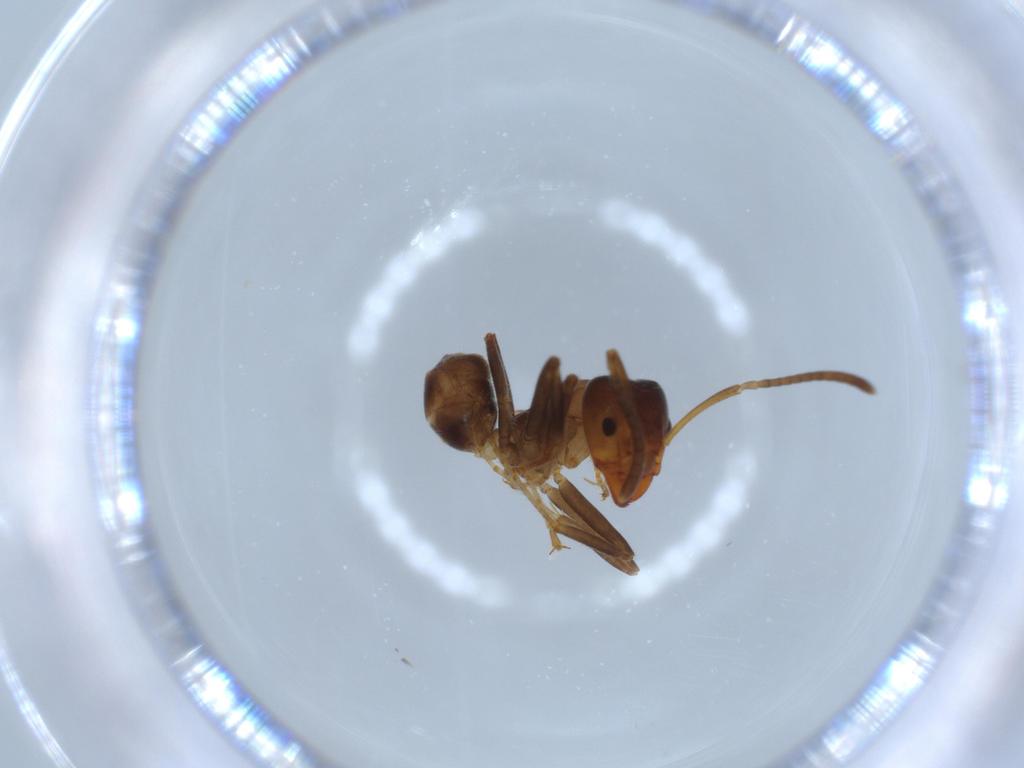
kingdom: Animalia
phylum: Arthropoda
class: Insecta
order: Hymenoptera
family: Formicidae
